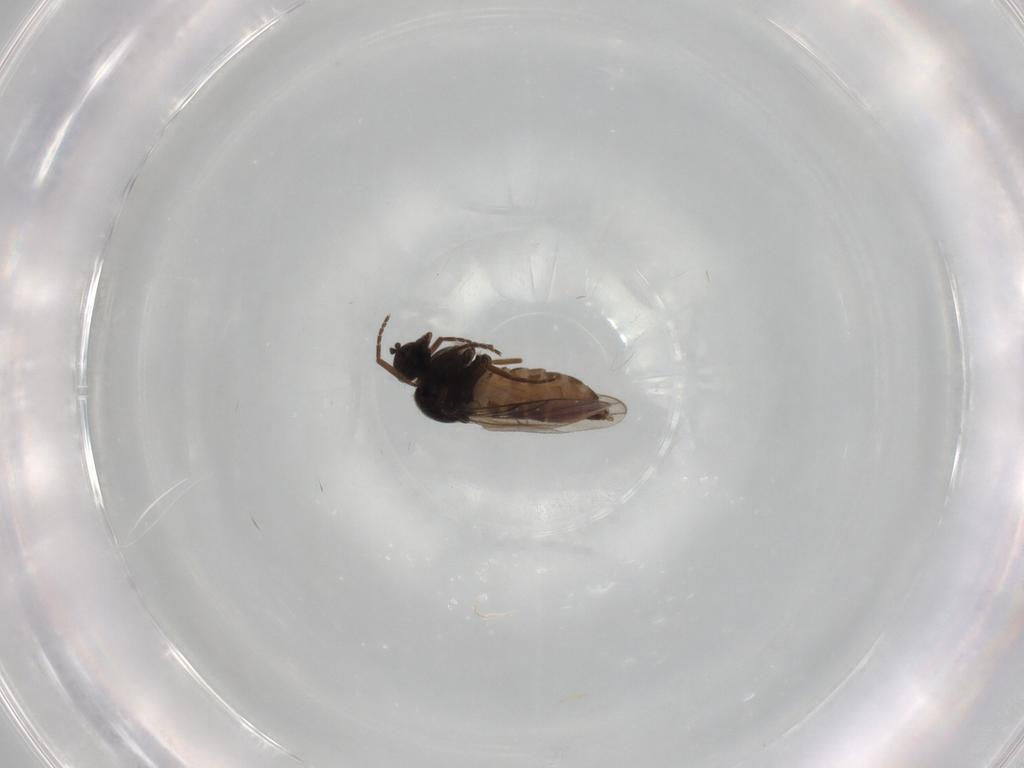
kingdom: Animalia
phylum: Arthropoda
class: Insecta
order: Diptera
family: Muscidae
